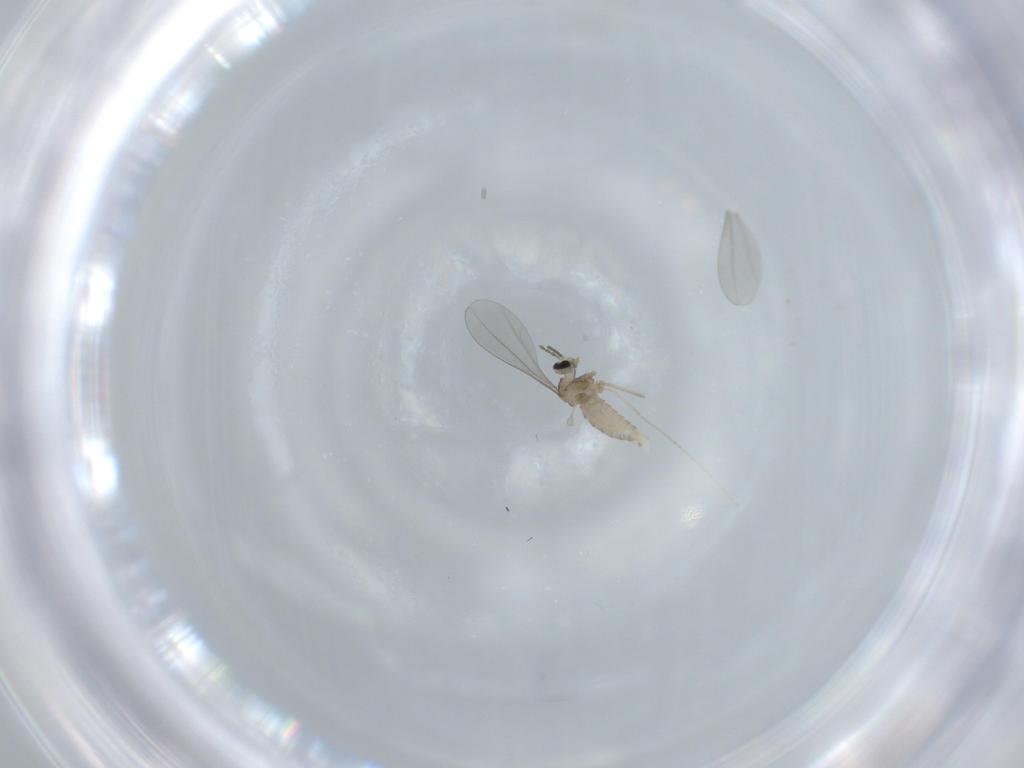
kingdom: Animalia
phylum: Arthropoda
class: Insecta
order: Diptera
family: Cecidomyiidae
